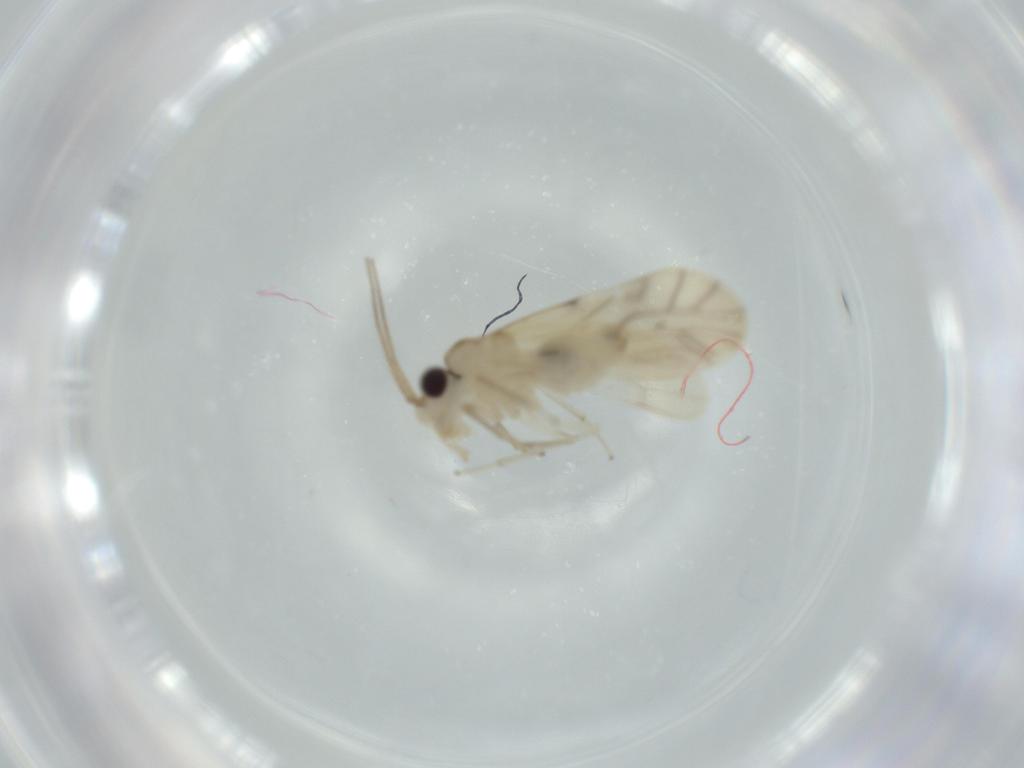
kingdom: Animalia
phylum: Arthropoda
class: Insecta
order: Psocodea
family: Caeciliusidae
